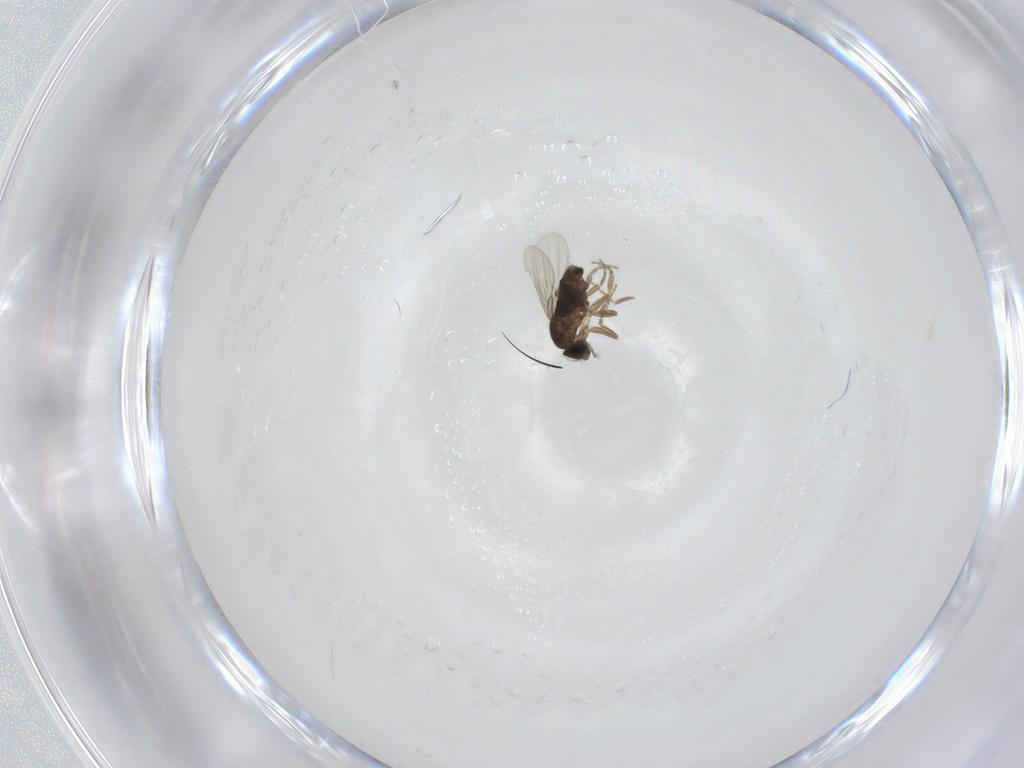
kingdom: Animalia
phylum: Arthropoda
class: Insecta
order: Diptera
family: Phoridae
